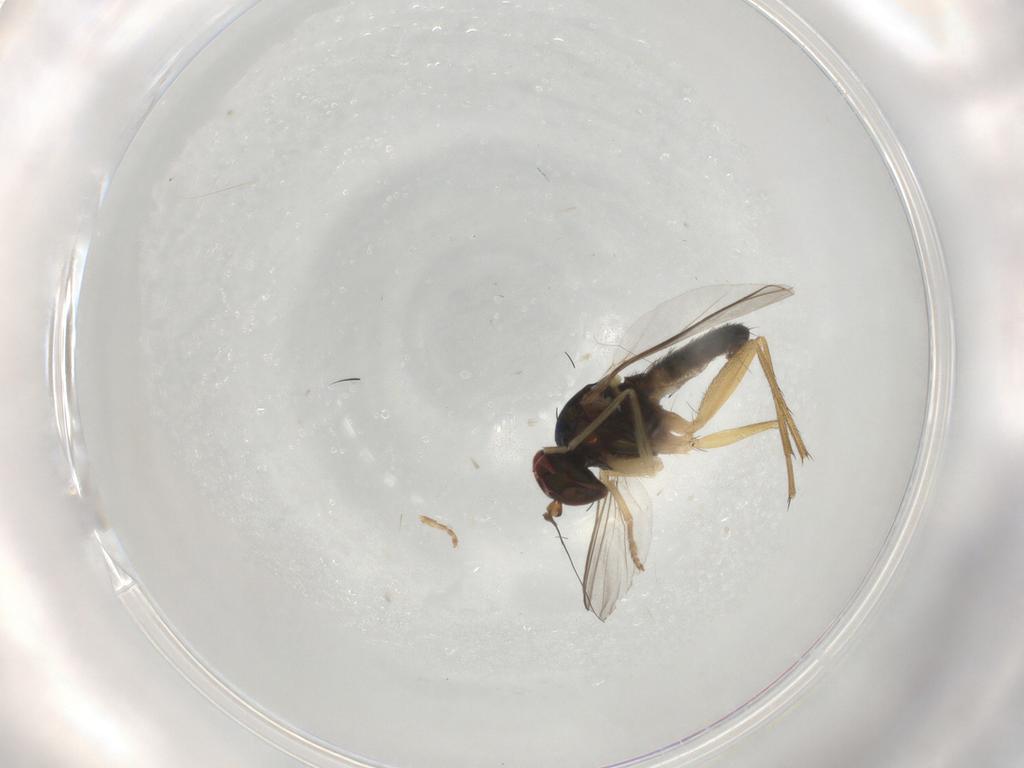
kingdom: Animalia
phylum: Arthropoda
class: Insecta
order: Diptera
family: Dolichopodidae
